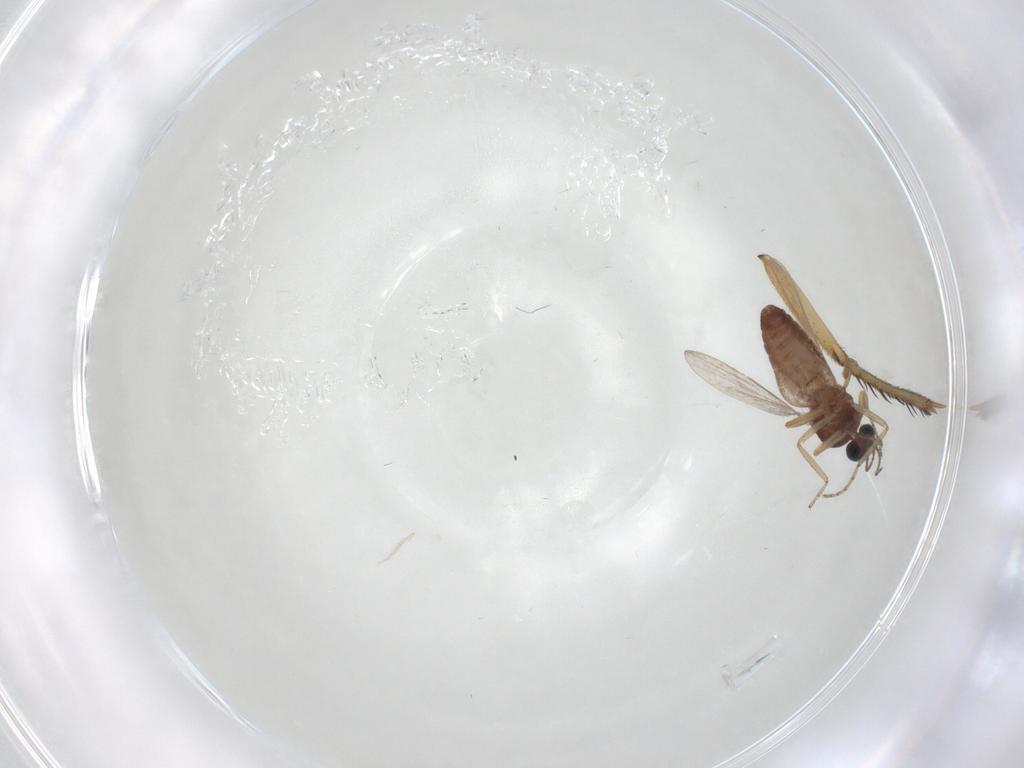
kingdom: Animalia
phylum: Arthropoda
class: Insecta
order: Diptera
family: Ceratopogonidae
